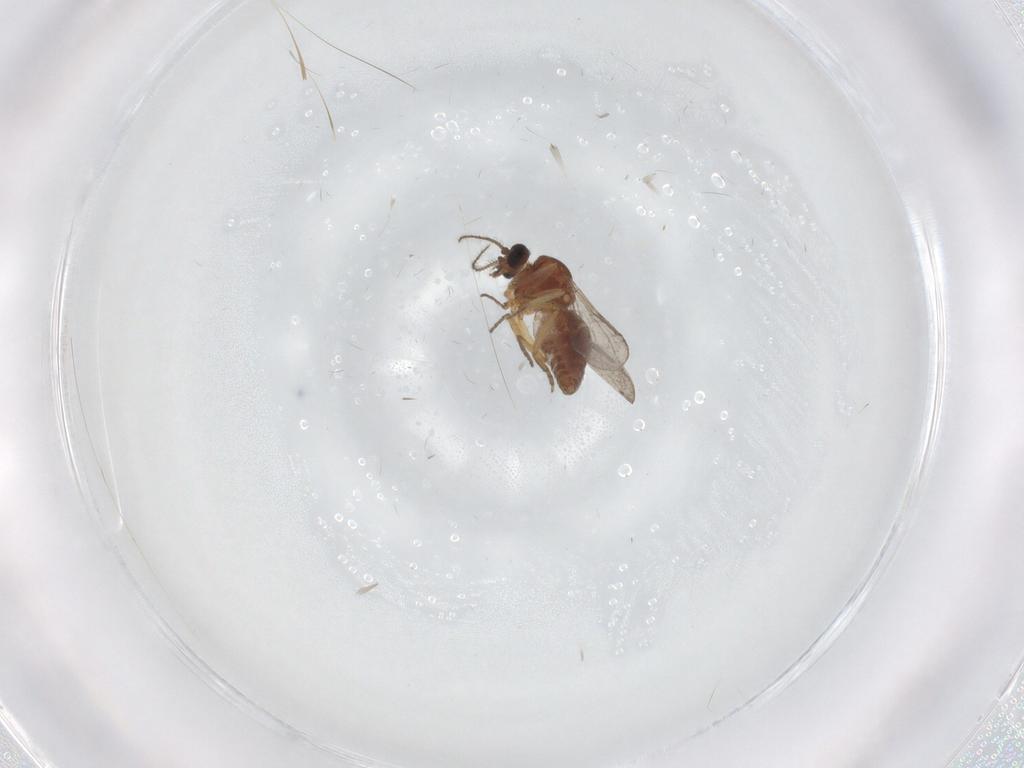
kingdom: Animalia
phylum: Arthropoda
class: Insecta
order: Diptera
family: Ceratopogonidae
